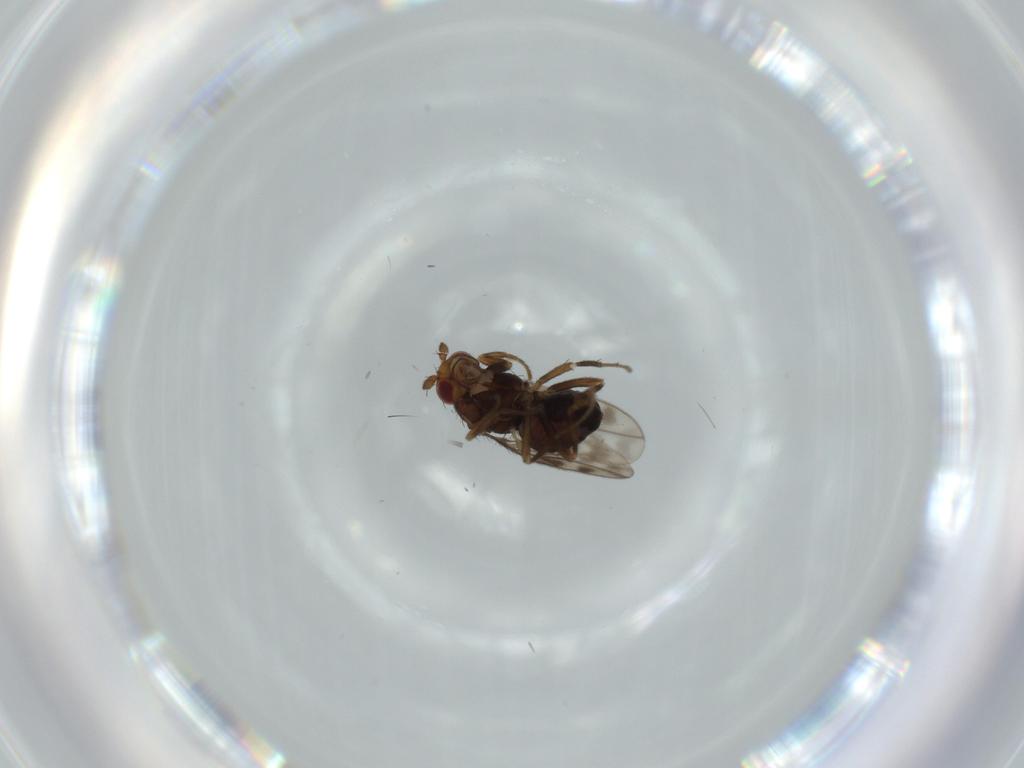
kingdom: Animalia
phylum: Arthropoda
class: Insecta
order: Diptera
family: Sphaeroceridae
